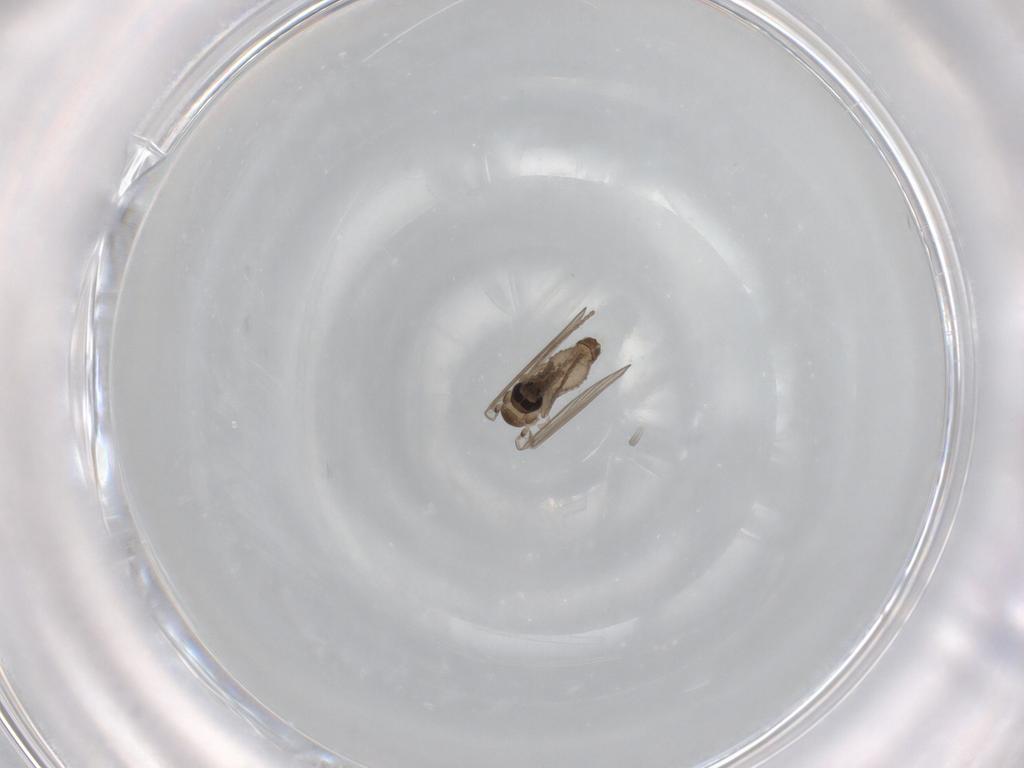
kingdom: Animalia
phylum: Arthropoda
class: Insecta
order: Diptera
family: Psychodidae
